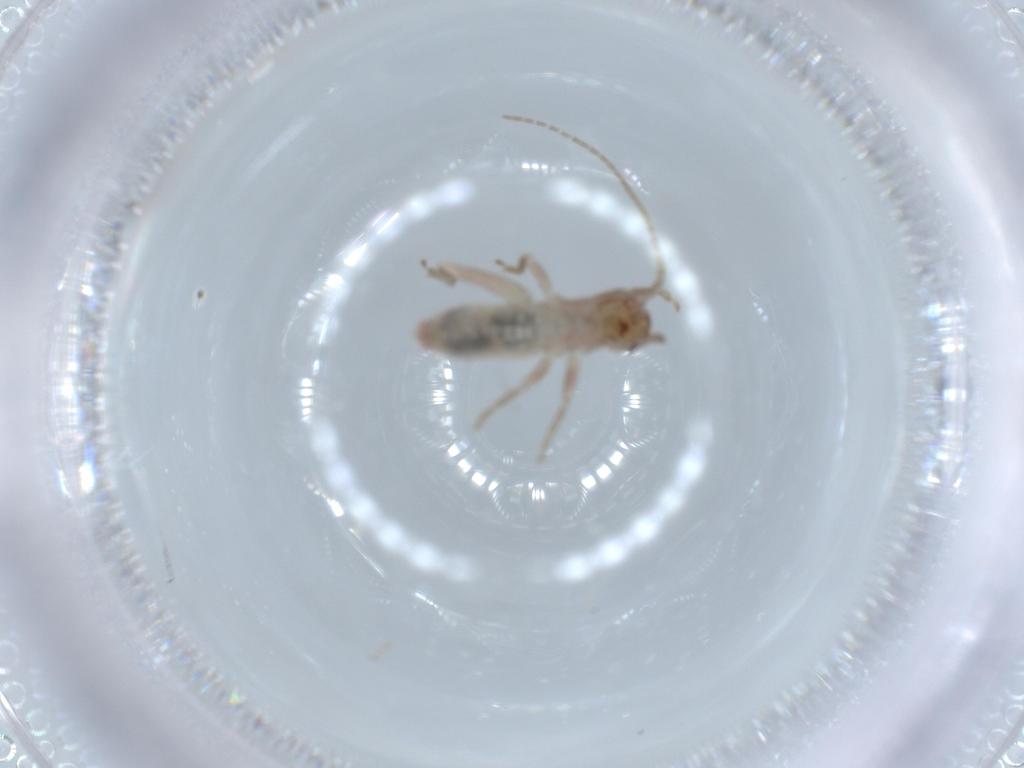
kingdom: Animalia
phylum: Arthropoda
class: Insecta
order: Orthoptera
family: Mogoplistidae
